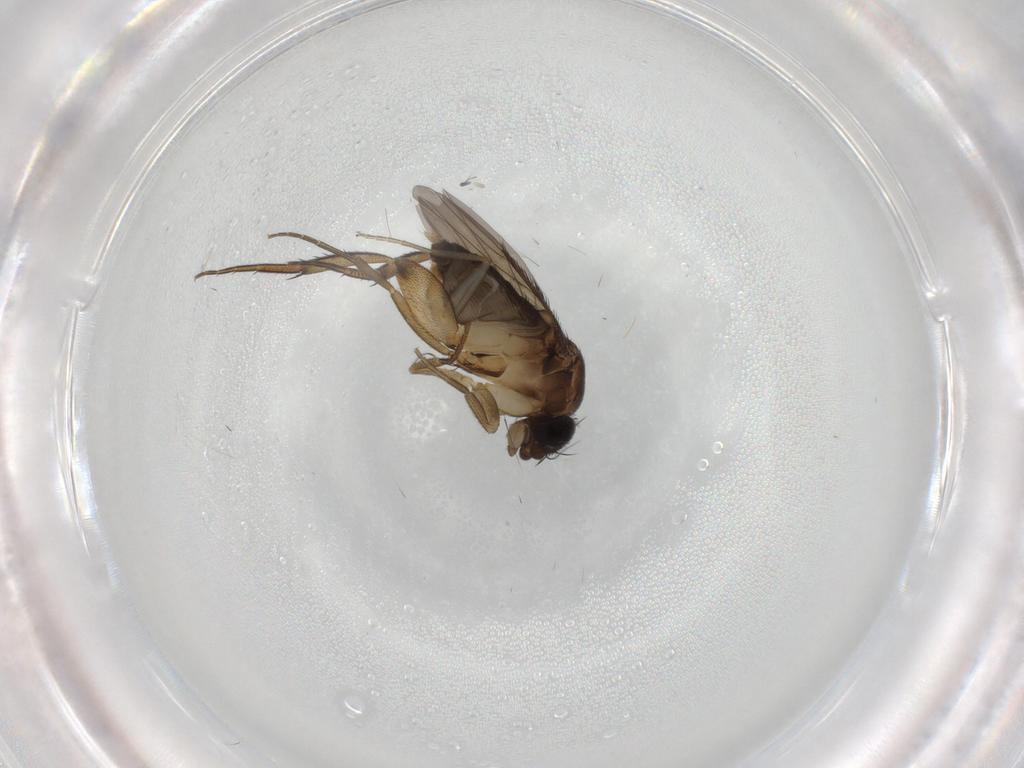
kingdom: Animalia
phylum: Arthropoda
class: Insecta
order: Diptera
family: Phoridae
